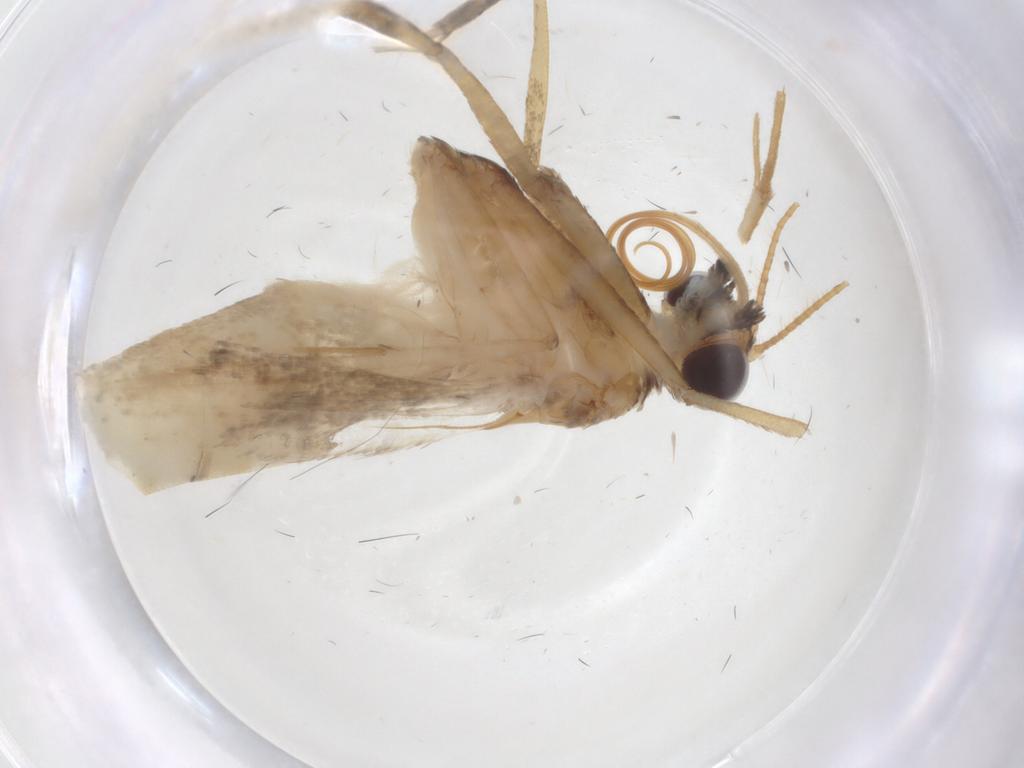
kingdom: Animalia
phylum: Arthropoda
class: Insecta
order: Lepidoptera
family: Crambidae
